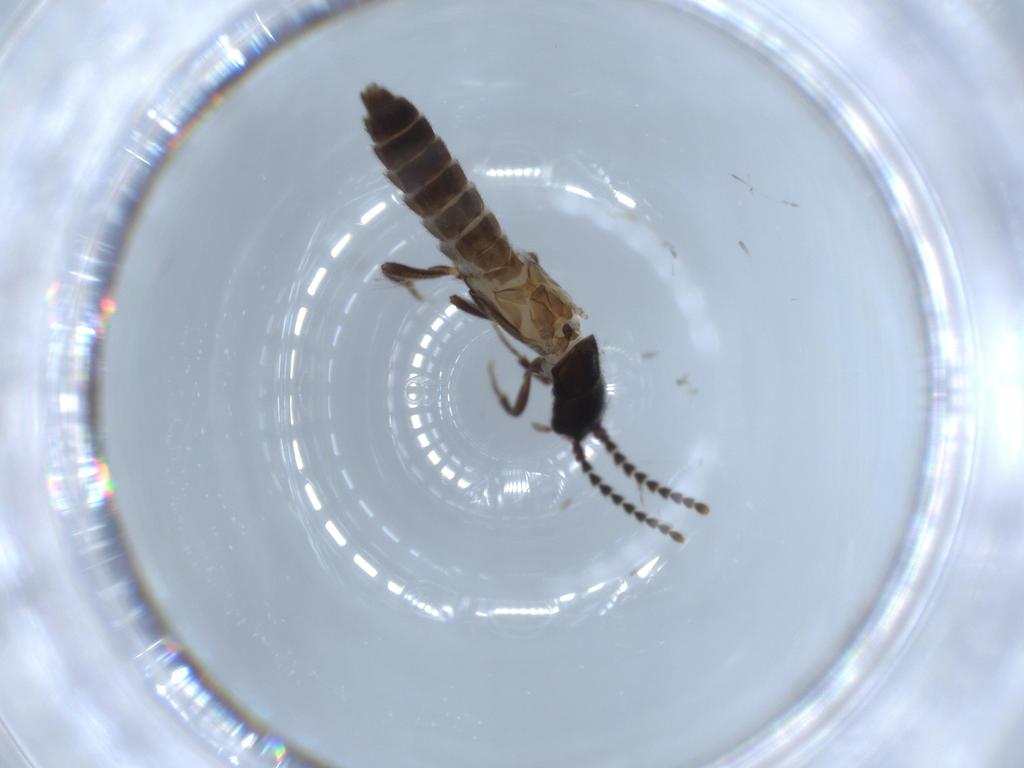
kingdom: Animalia
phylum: Arthropoda
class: Insecta
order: Coleoptera
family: Omethidae
